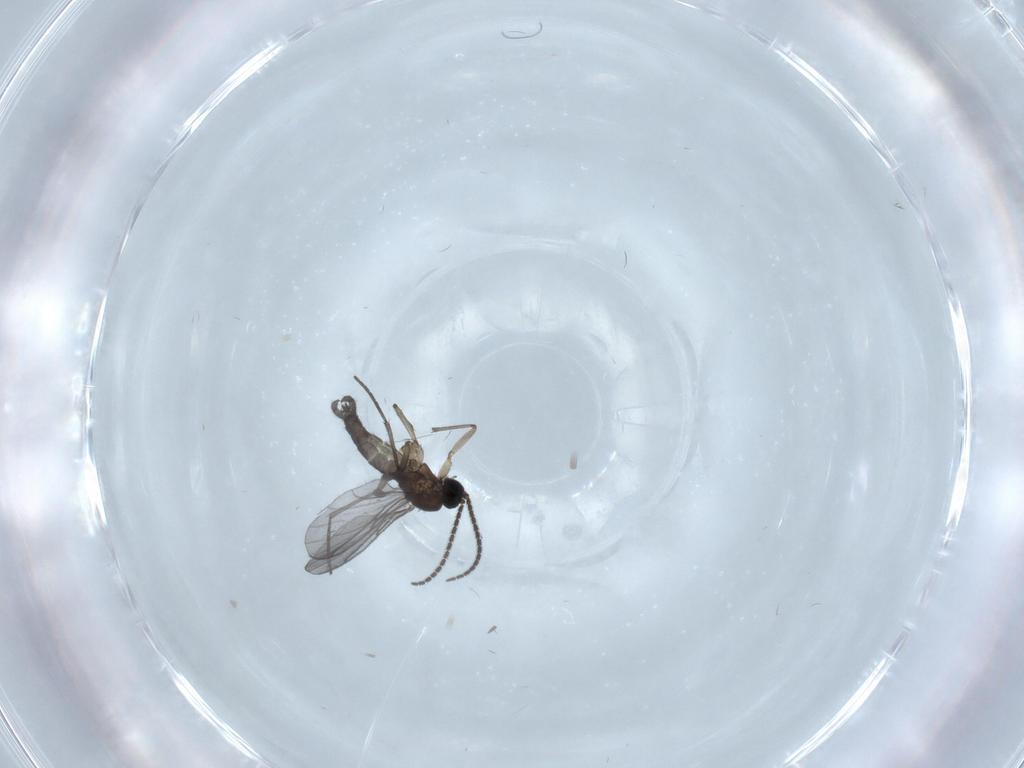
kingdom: Animalia
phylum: Arthropoda
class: Insecta
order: Diptera
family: Sciaridae
